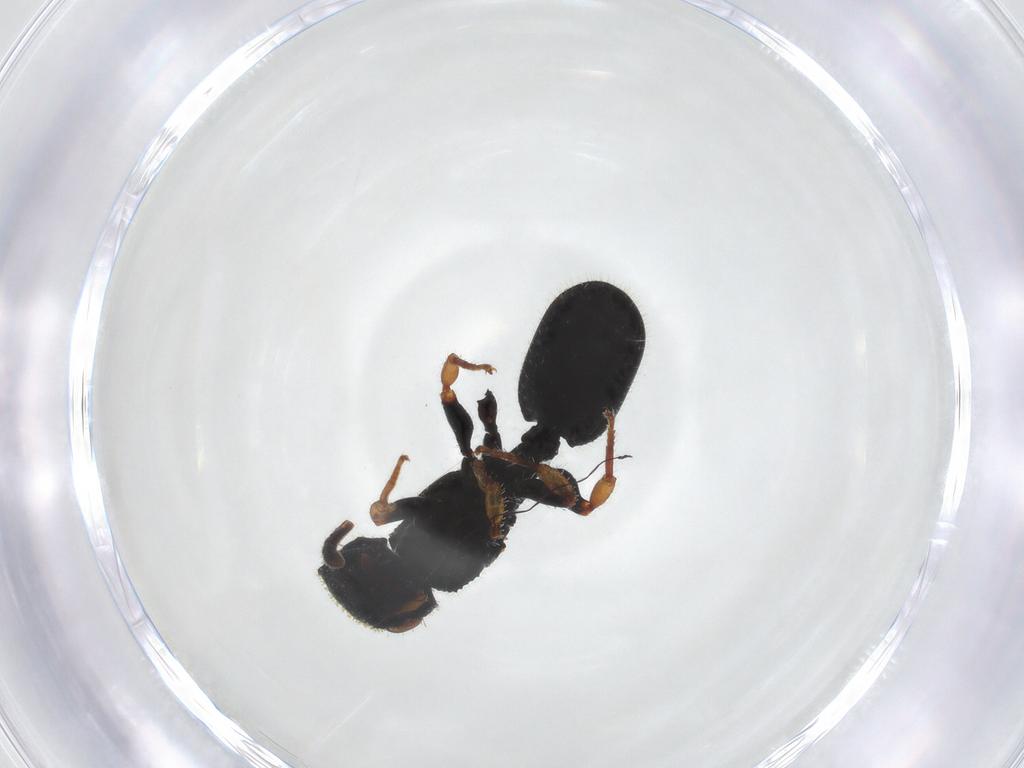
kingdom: Animalia
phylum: Arthropoda
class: Insecta
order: Hymenoptera
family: Formicidae
